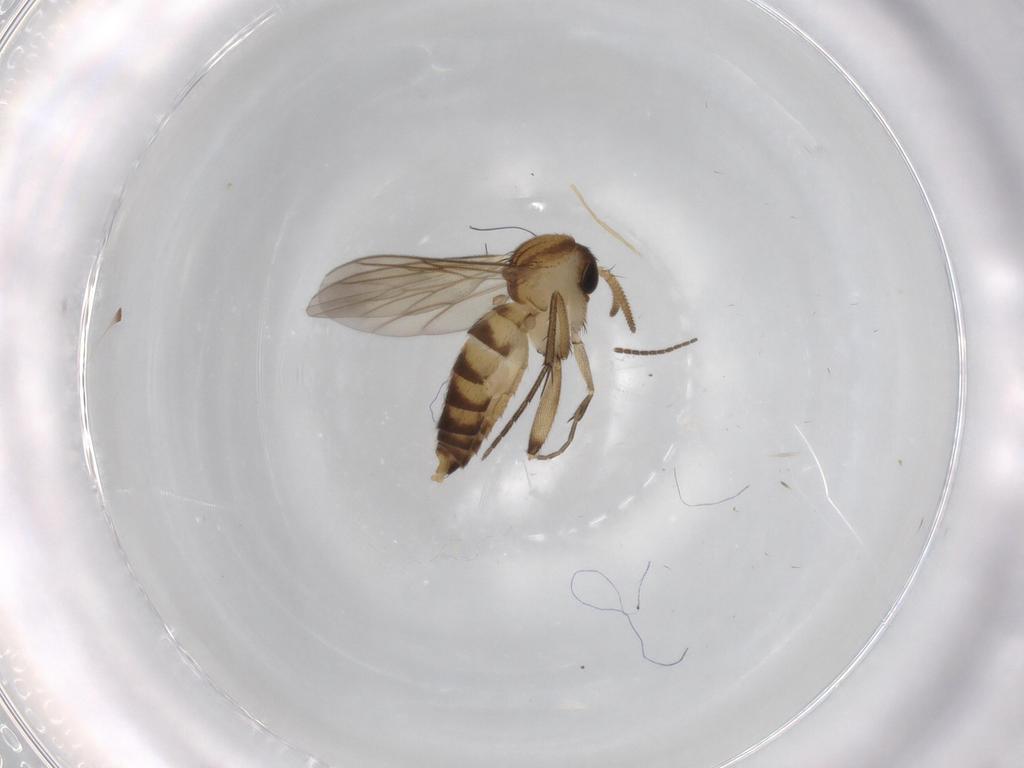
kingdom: Animalia
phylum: Arthropoda
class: Insecta
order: Diptera
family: Mycetophilidae
